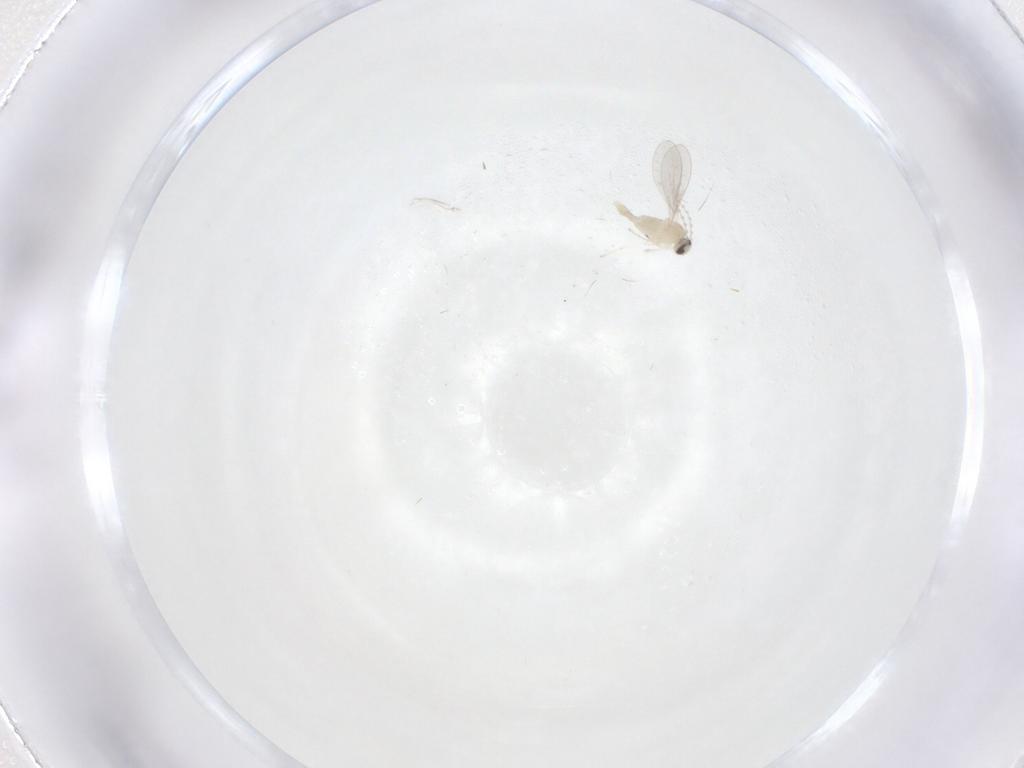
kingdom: Animalia
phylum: Arthropoda
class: Insecta
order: Diptera
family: Cecidomyiidae
